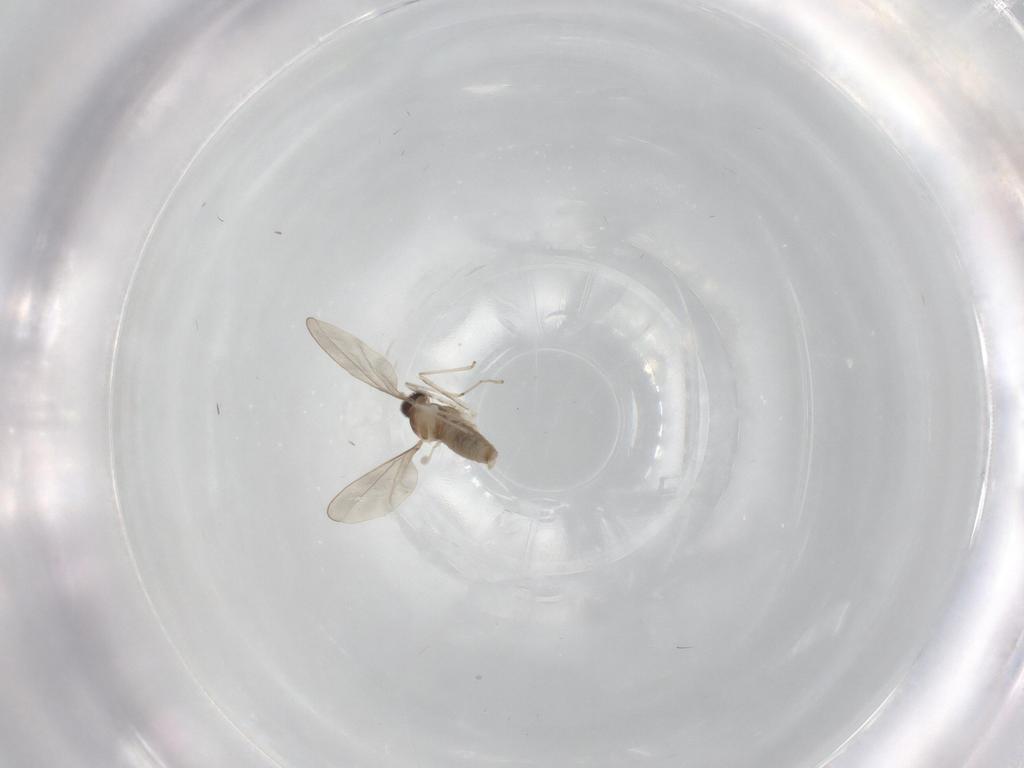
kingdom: Animalia
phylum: Arthropoda
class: Insecta
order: Diptera
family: Cecidomyiidae
